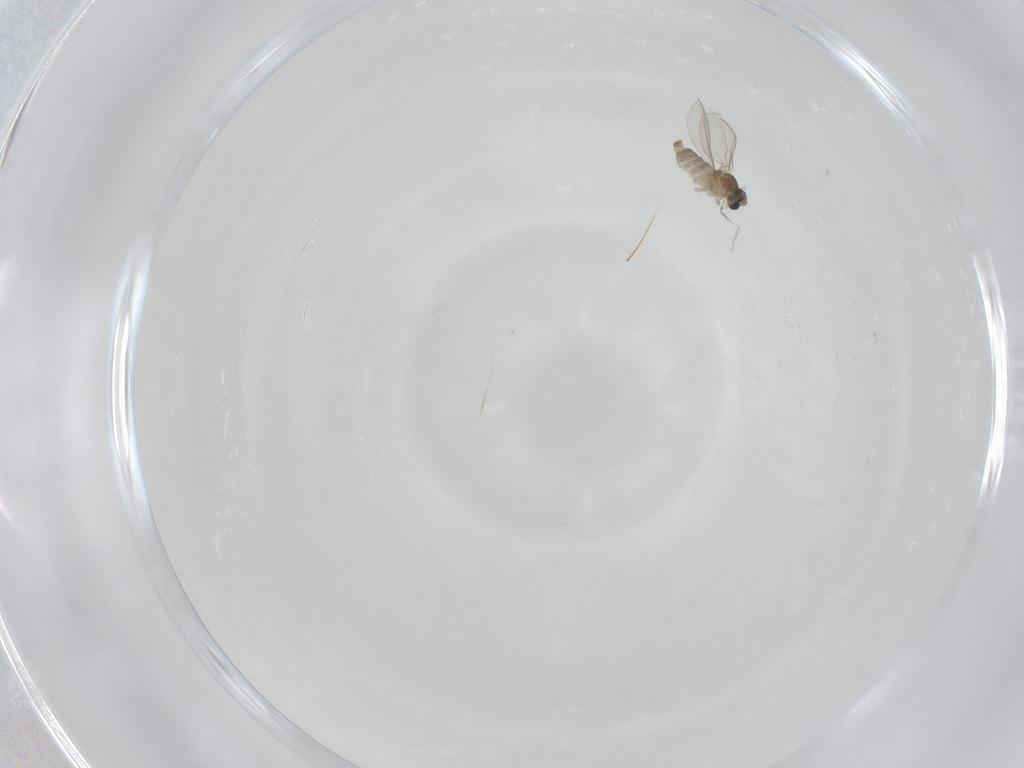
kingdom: Animalia
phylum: Arthropoda
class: Insecta
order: Diptera
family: Cecidomyiidae
